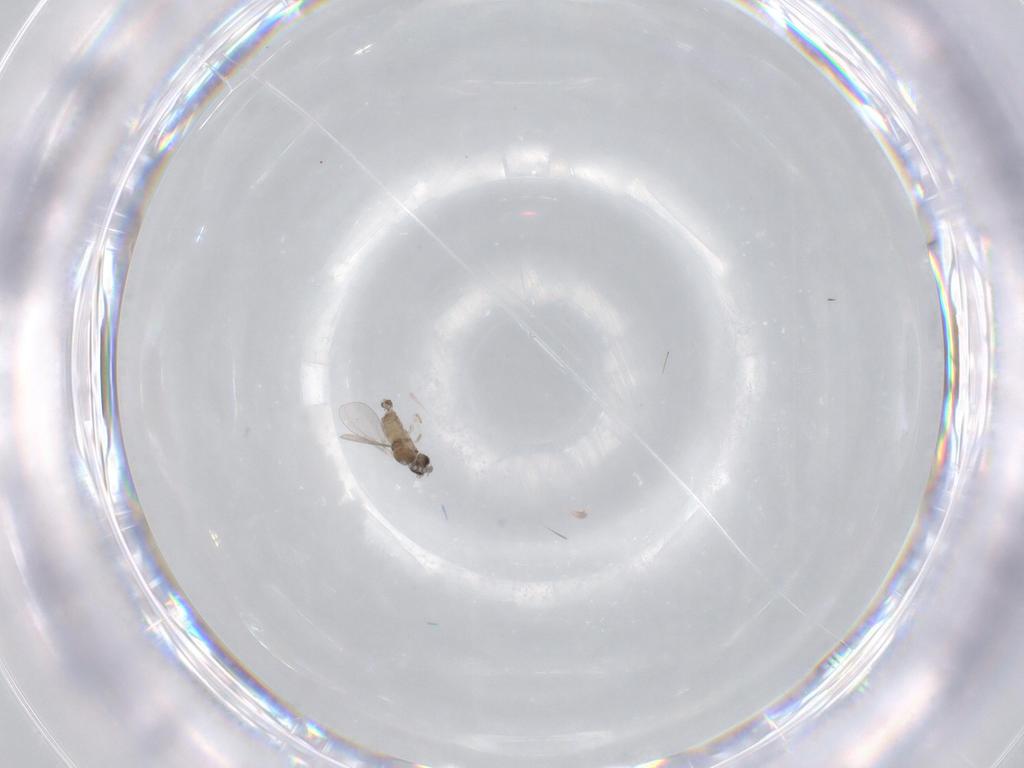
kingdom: Animalia
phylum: Arthropoda
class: Insecta
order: Diptera
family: Cecidomyiidae
